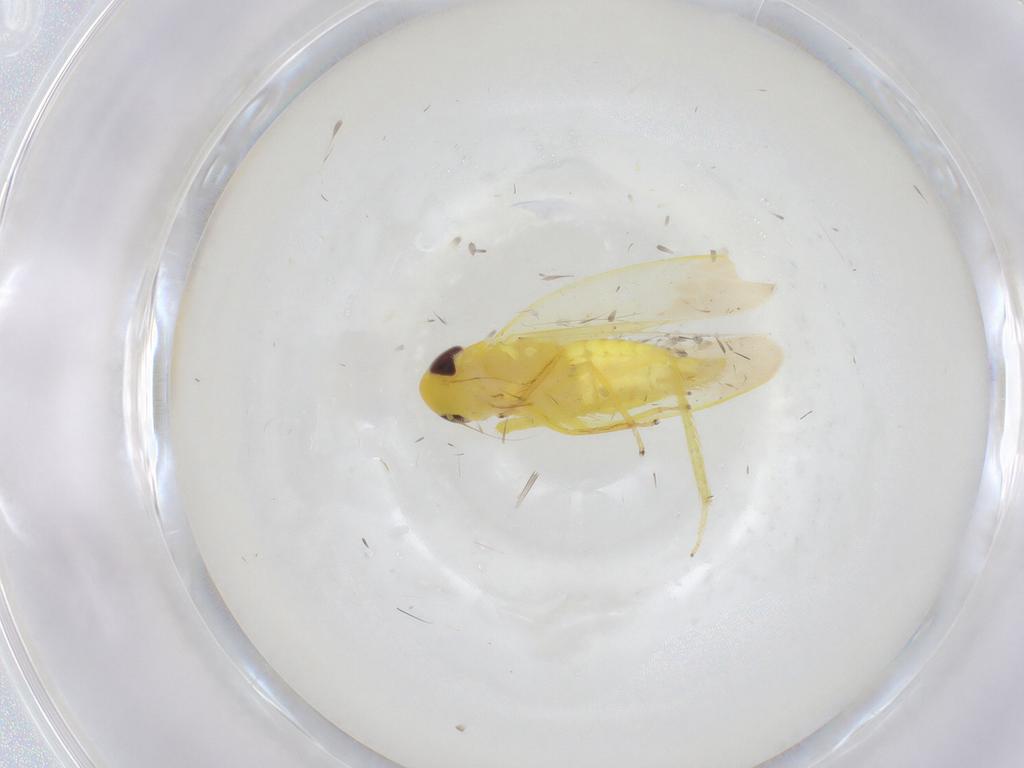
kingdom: Animalia
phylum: Arthropoda
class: Insecta
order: Hemiptera
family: Cicadellidae
